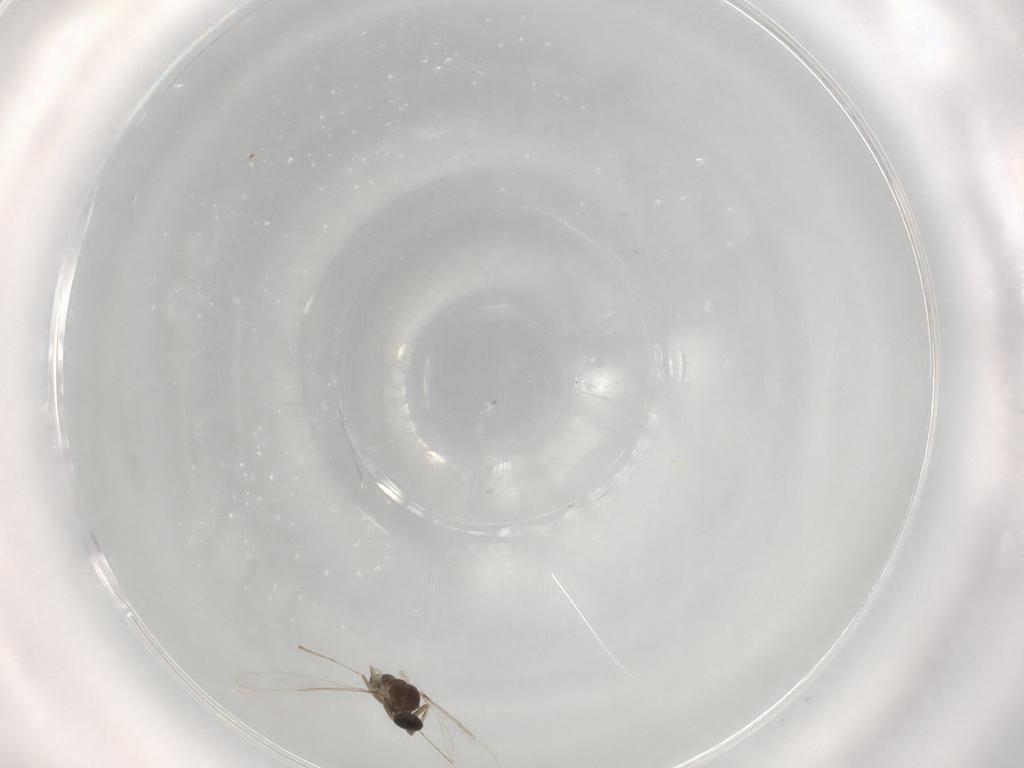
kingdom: Animalia
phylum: Arthropoda
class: Insecta
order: Diptera
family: Cecidomyiidae
